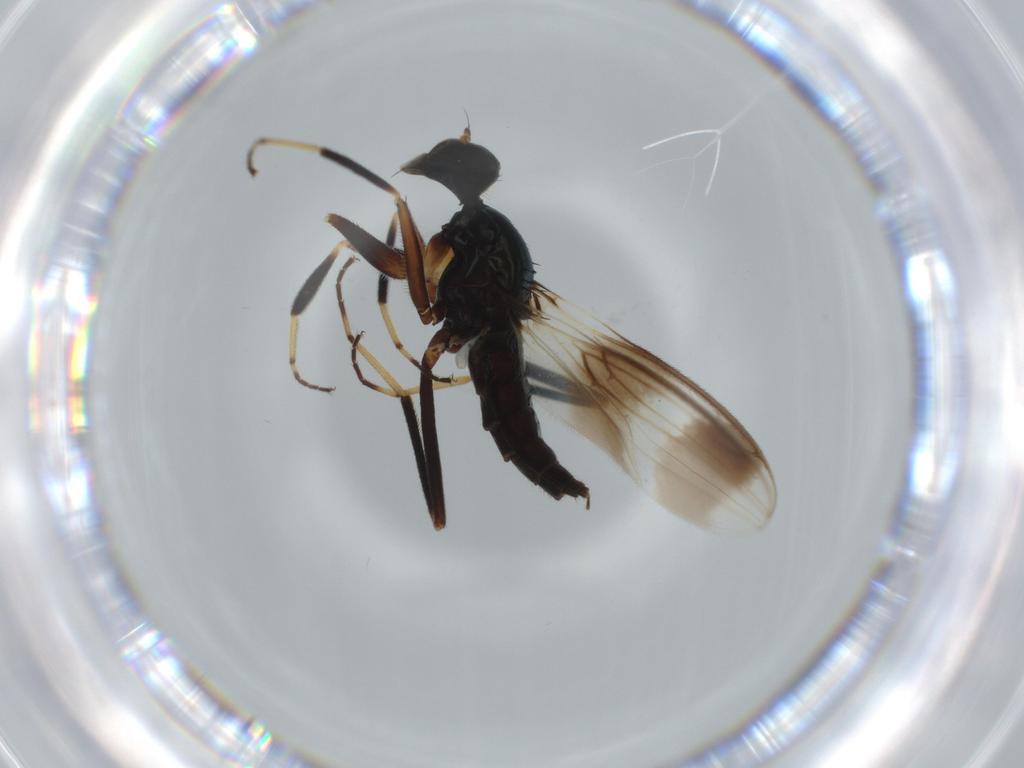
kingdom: Animalia
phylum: Arthropoda
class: Insecta
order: Diptera
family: Hybotidae
